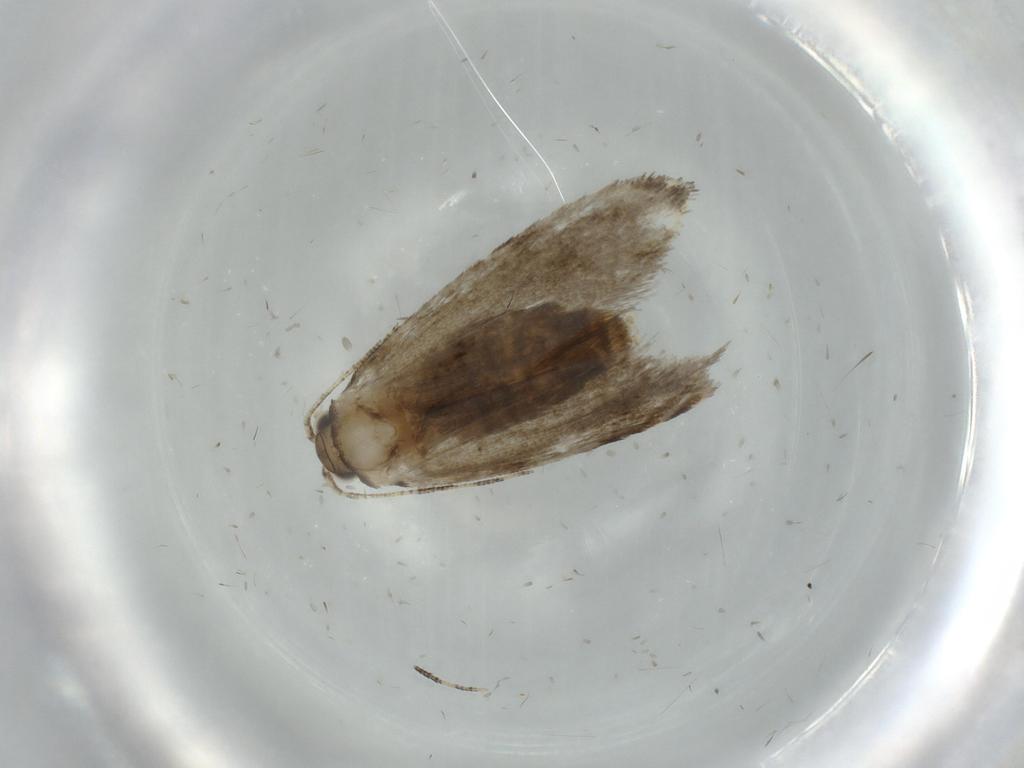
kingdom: Animalia
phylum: Arthropoda
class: Insecta
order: Lepidoptera
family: Tineidae
